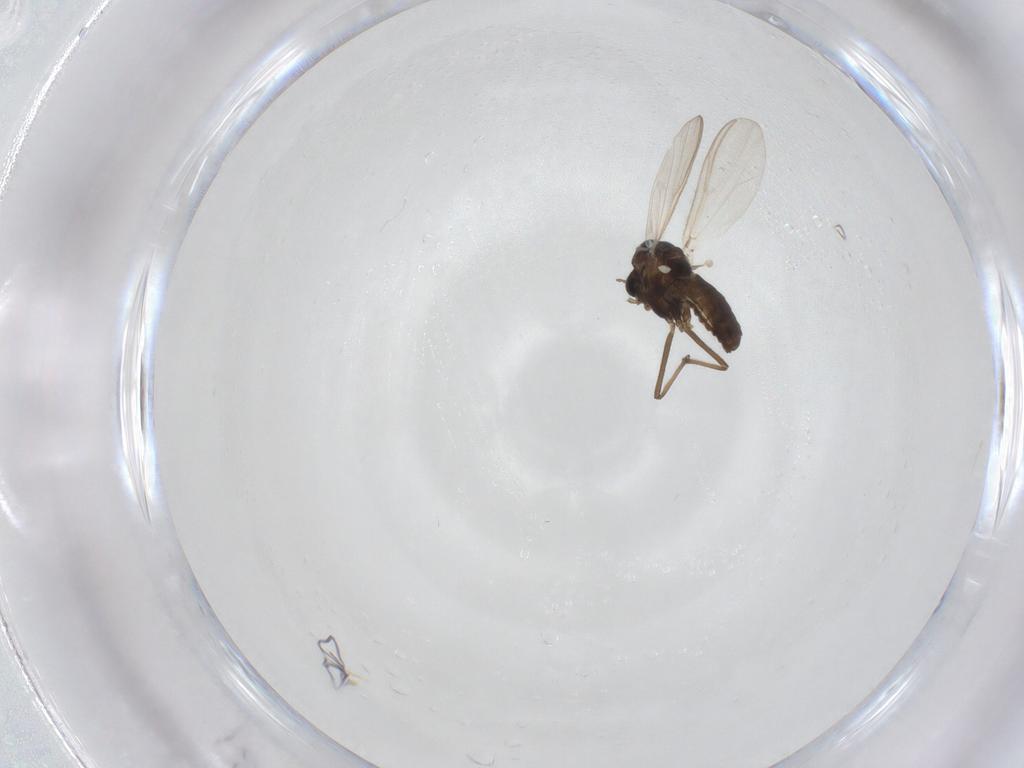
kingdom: Animalia
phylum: Arthropoda
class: Insecta
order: Diptera
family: Chironomidae
